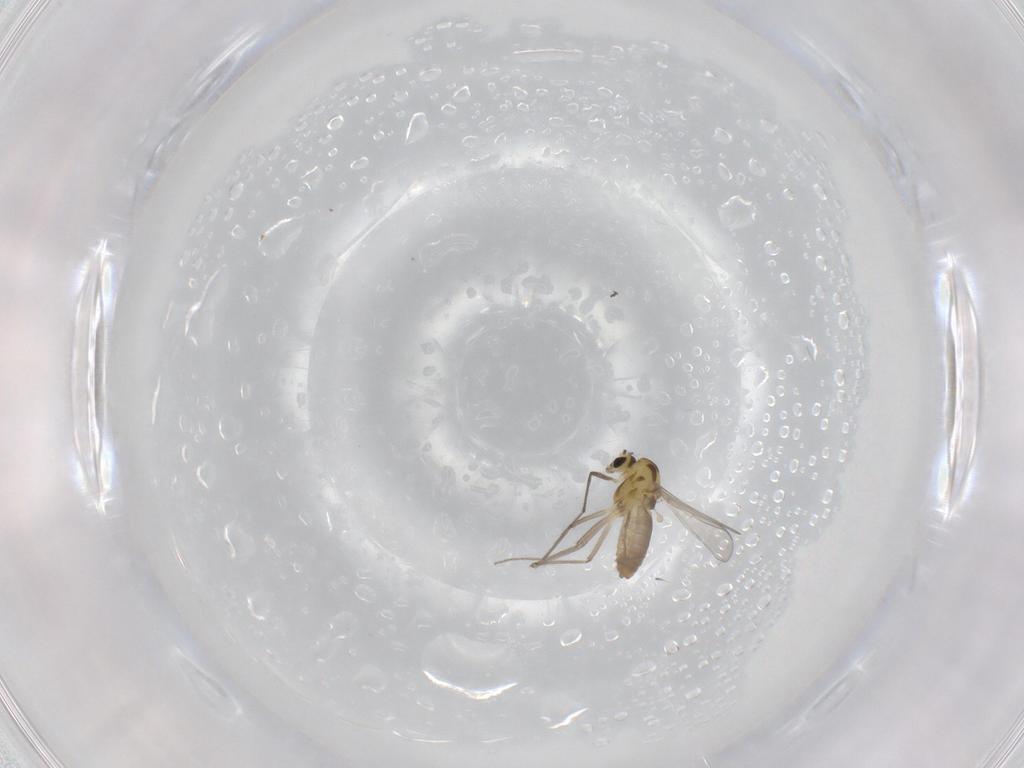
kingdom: Animalia
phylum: Arthropoda
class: Insecta
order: Diptera
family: Chironomidae
